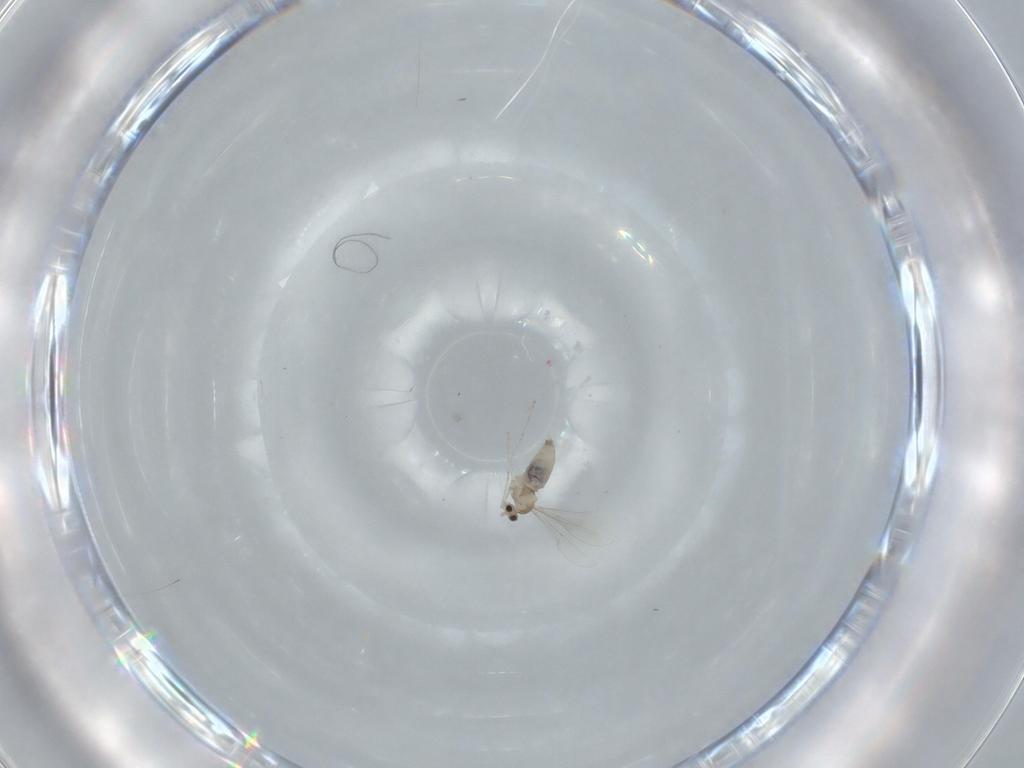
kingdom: Animalia
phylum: Arthropoda
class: Insecta
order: Diptera
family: Cecidomyiidae
